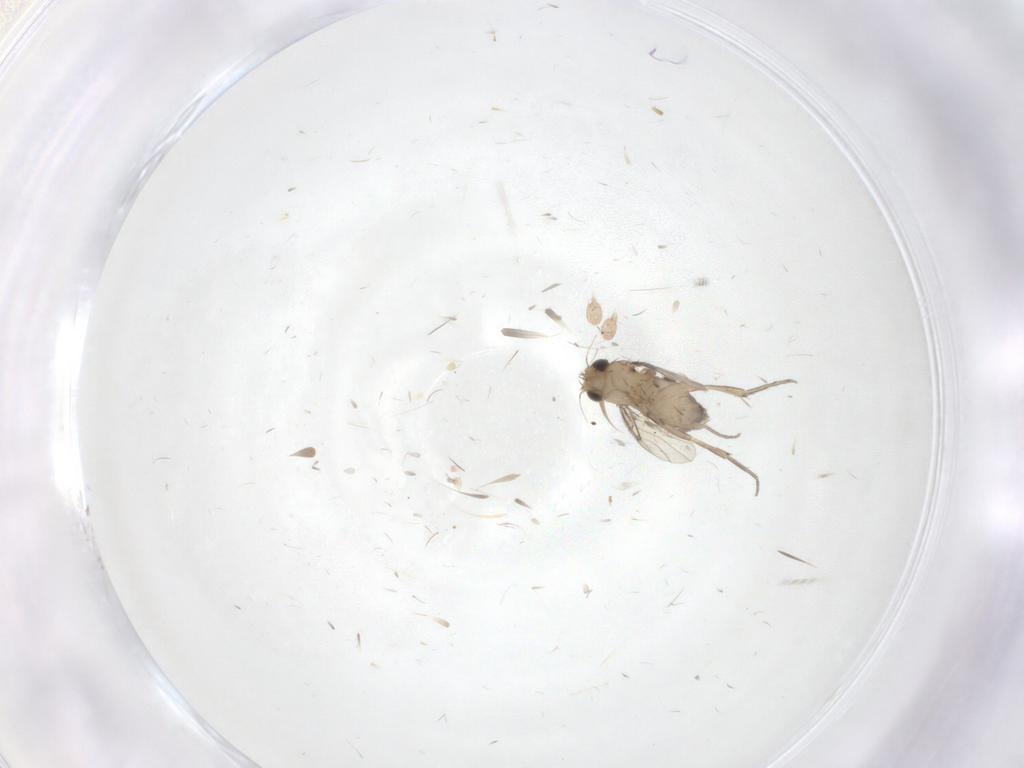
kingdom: Animalia
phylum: Arthropoda
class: Insecta
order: Diptera
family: Phoridae
